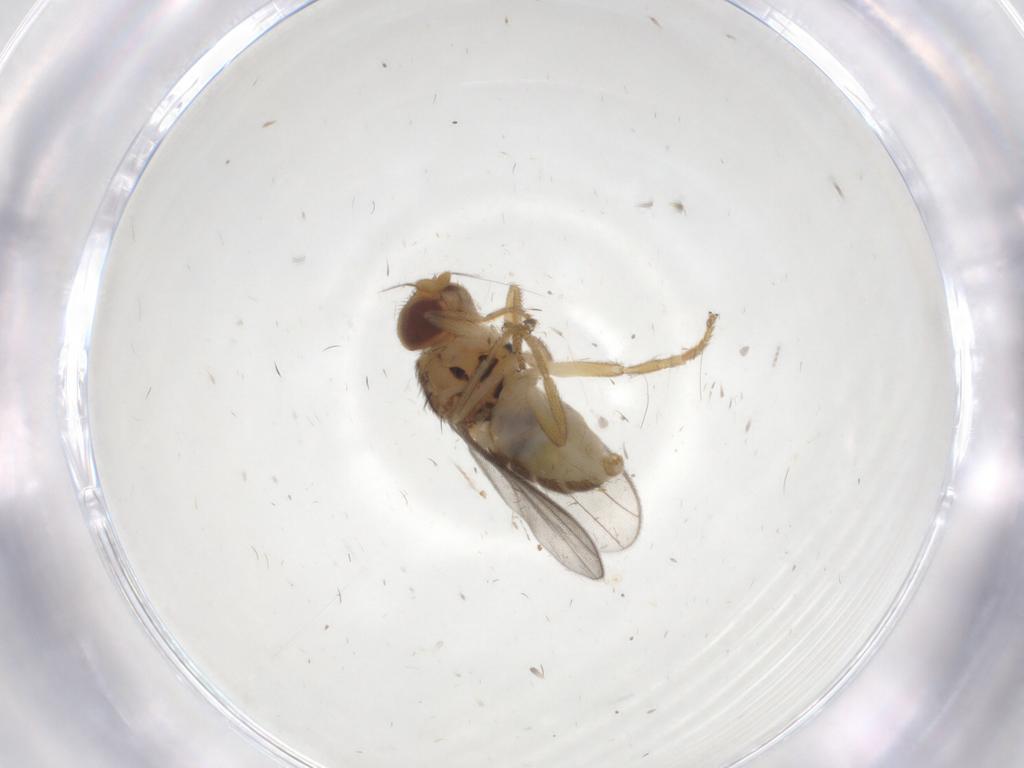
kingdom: Animalia
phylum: Arthropoda
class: Insecta
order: Diptera
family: Chloropidae
